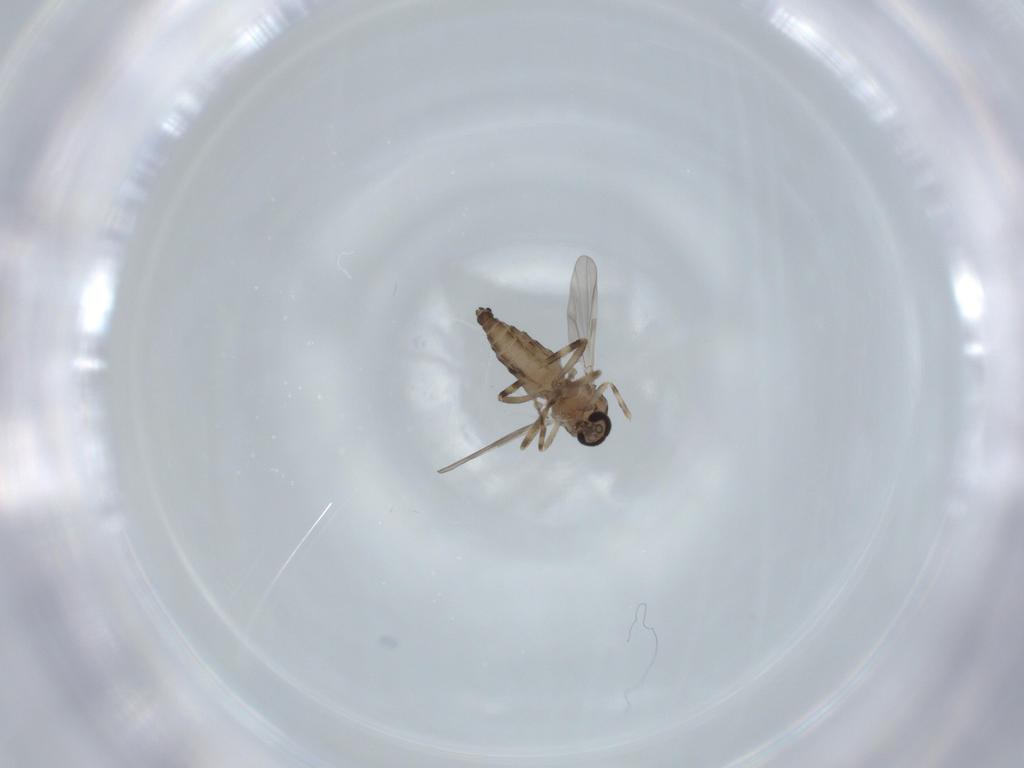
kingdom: Animalia
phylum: Arthropoda
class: Insecta
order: Diptera
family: Ceratopogonidae
